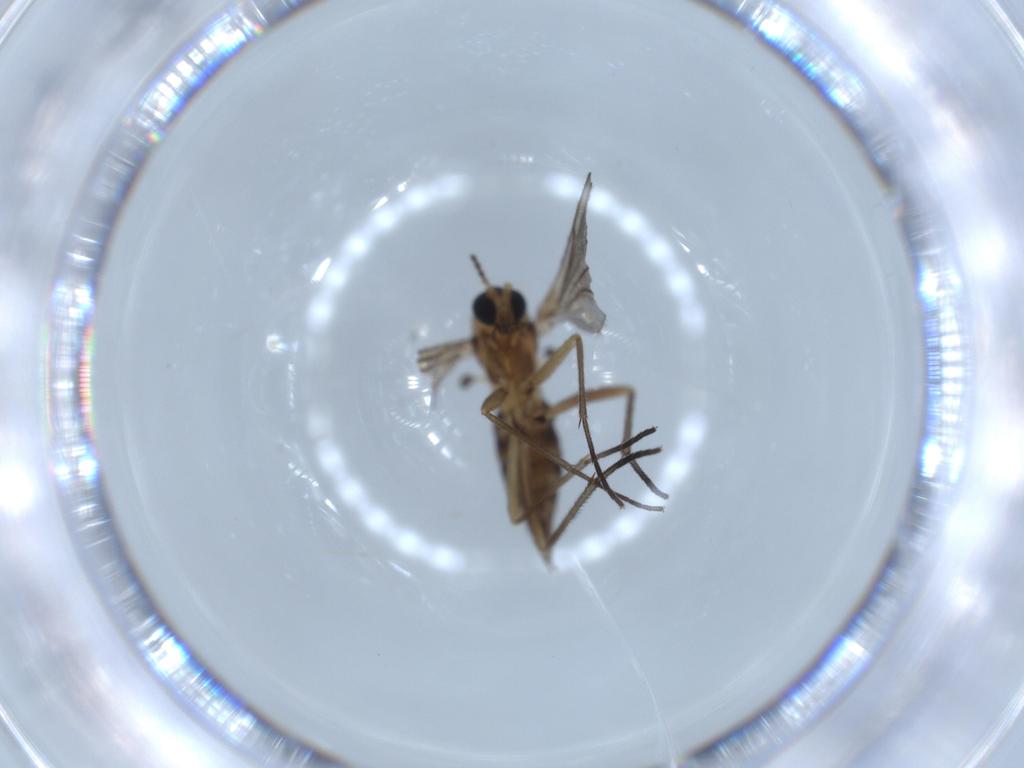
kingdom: Animalia
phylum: Arthropoda
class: Insecta
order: Diptera
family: Sciaridae
